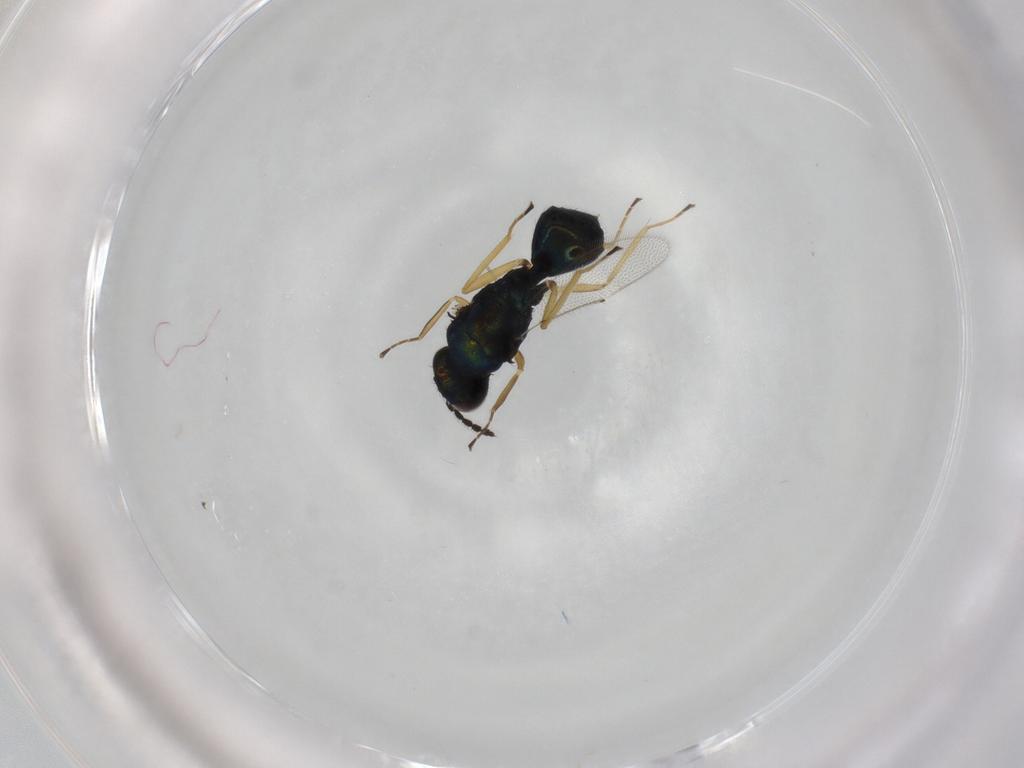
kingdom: Animalia
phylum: Arthropoda
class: Insecta
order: Hymenoptera
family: Eulophidae
